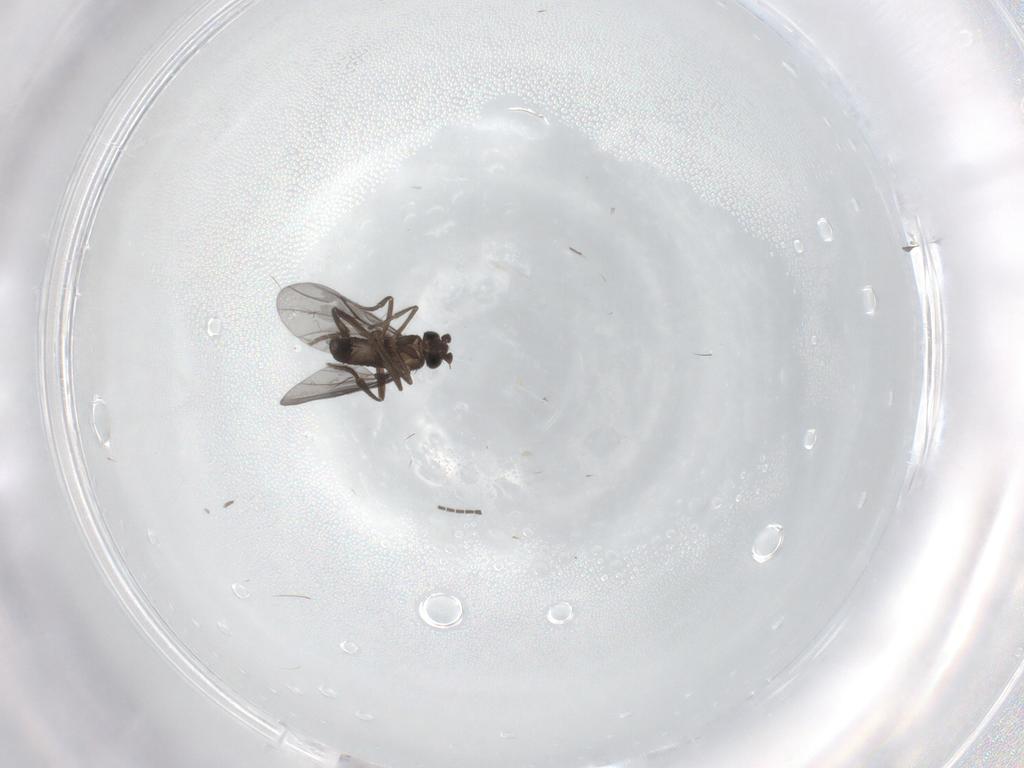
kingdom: Animalia
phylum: Arthropoda
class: Insecta
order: Diptera
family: Phoridae
